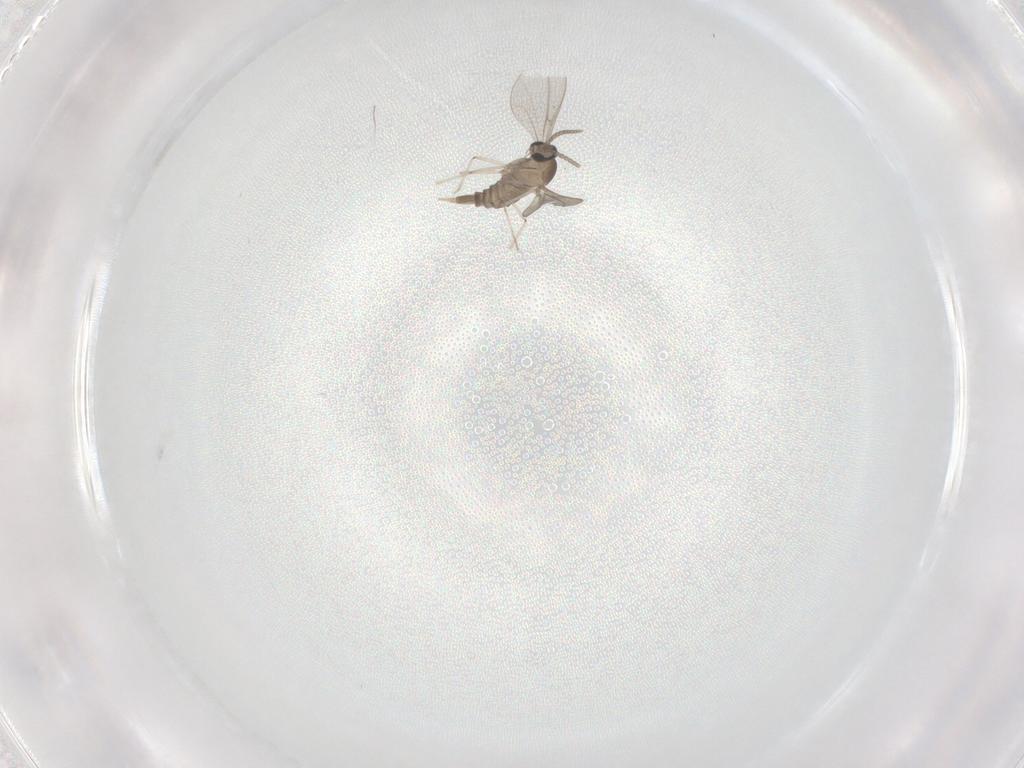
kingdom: Animalia
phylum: Arthropoda
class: Insecta
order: Diptera
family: Cecidomyiidae
